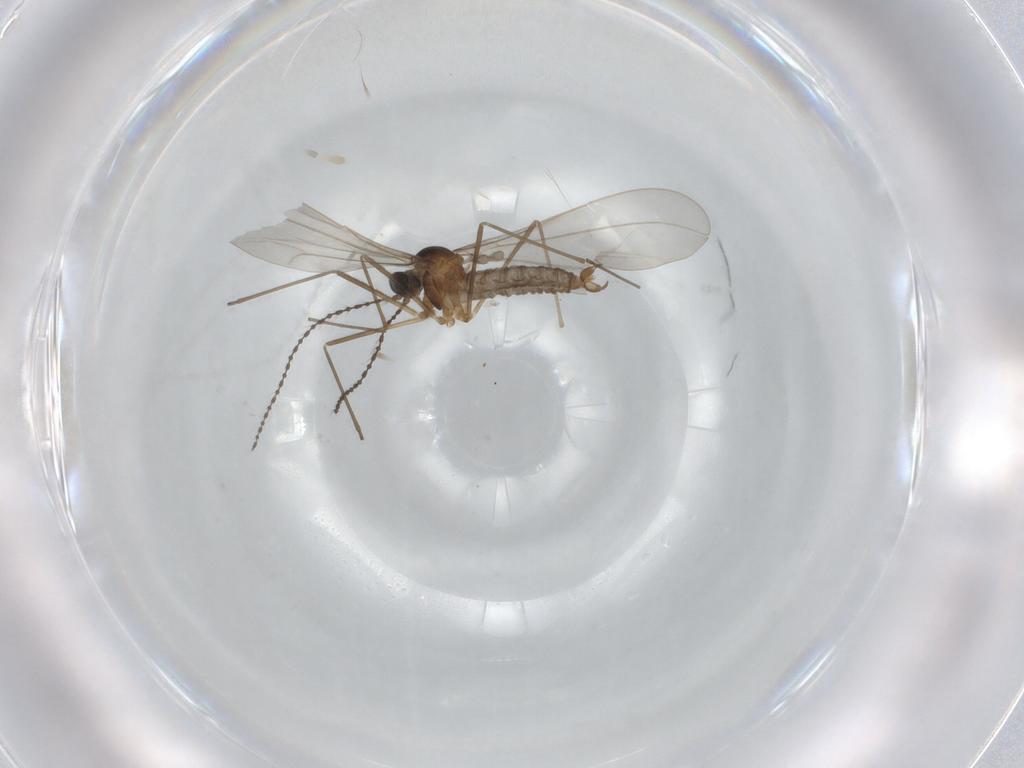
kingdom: Animalia
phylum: Arthropoda
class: Insecta
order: Diptera
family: Cecidomyiidae
